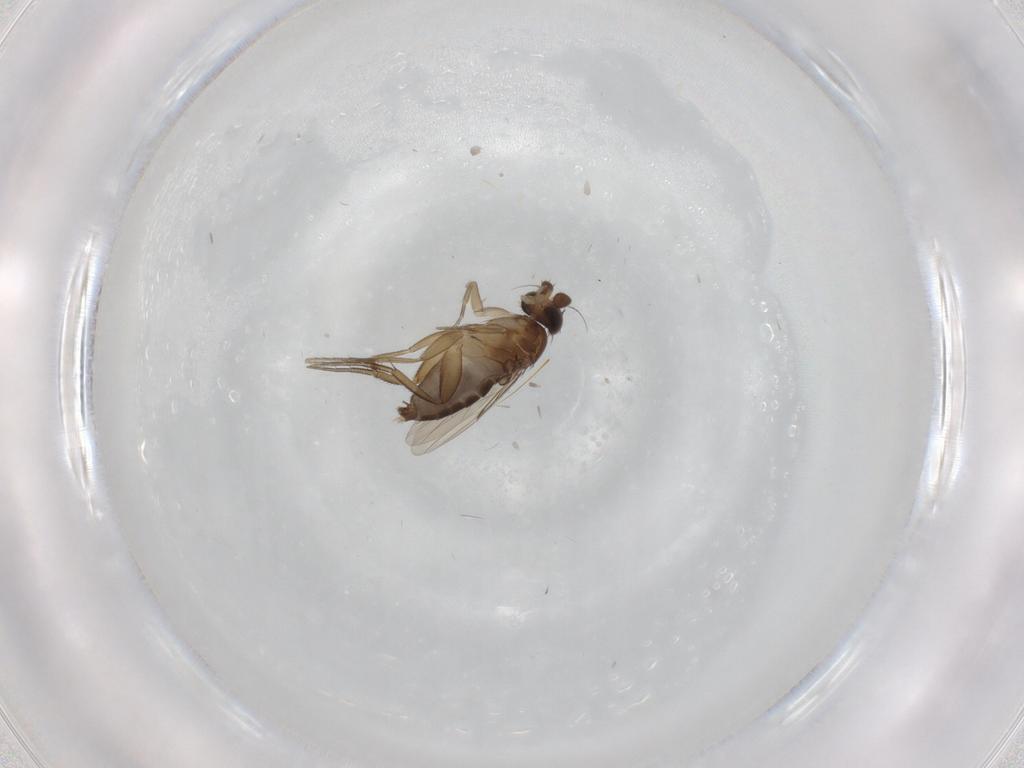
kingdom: Animalia
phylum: Arthropoda
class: Insecta
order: Diptera
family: Phoridae
